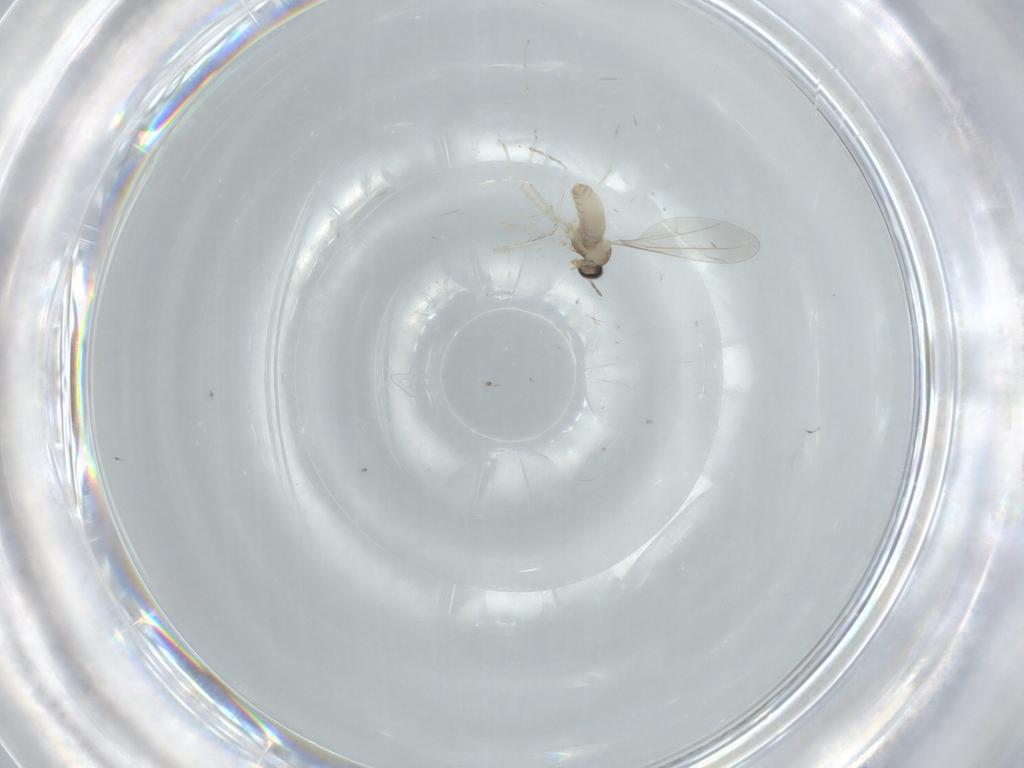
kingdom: Animalia
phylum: Arthropoda
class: Insecta
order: Diptera
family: Cecidomyiidae
